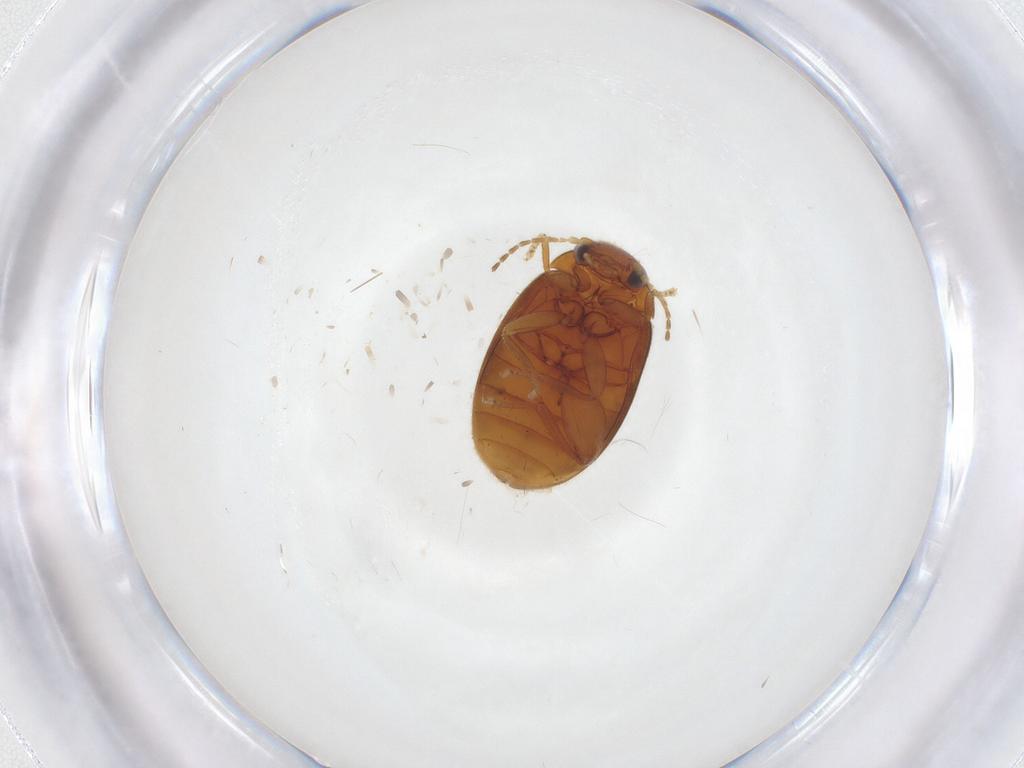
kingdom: Animalia
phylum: Arthropoda
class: Insecta
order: Coleoptera
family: Scirtidae
